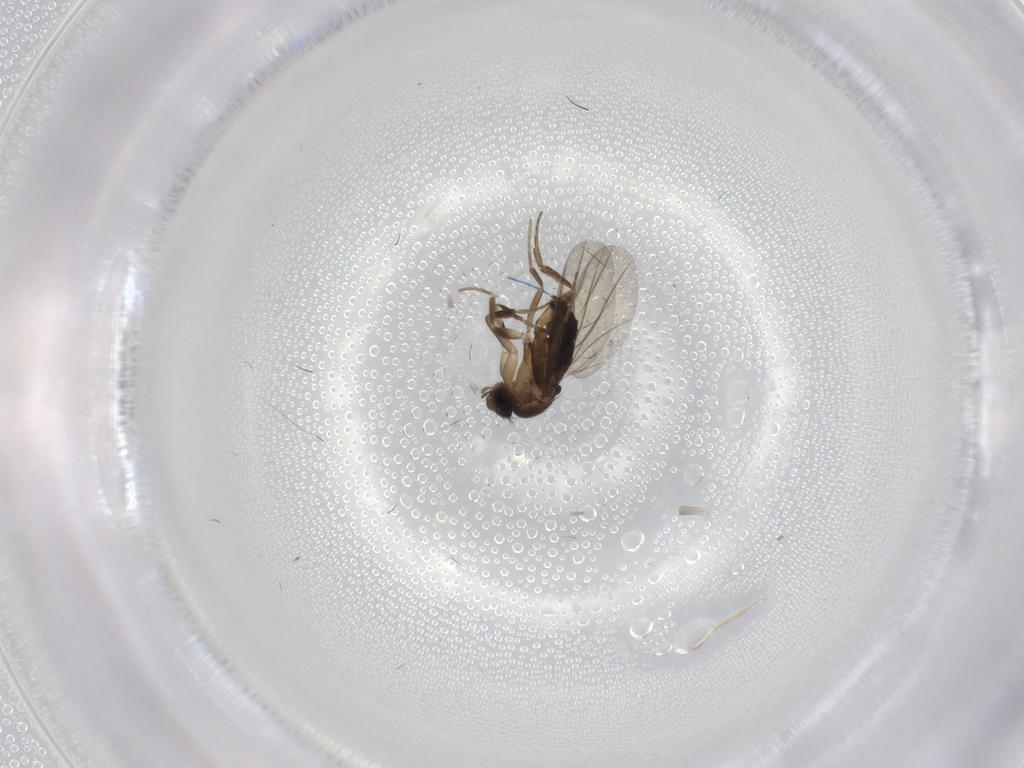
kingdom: Animalia
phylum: Arthropoda
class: Insecta
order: Diptera
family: Phoridae
